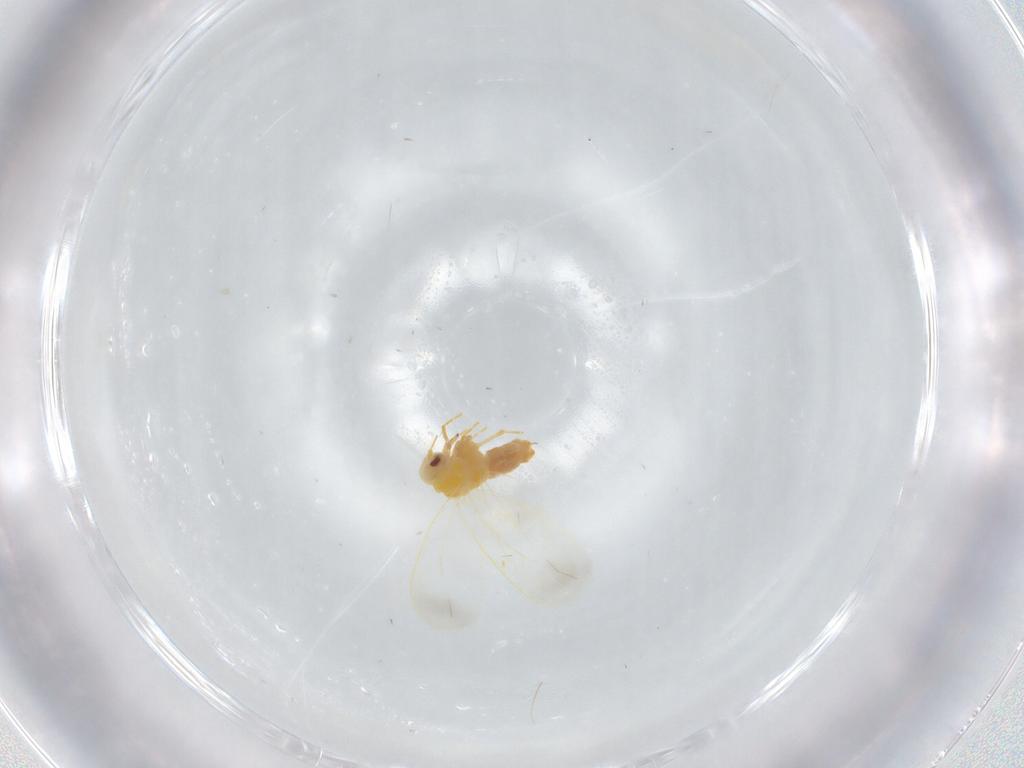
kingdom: Animalia
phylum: Arthropoda
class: Insecta
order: Hemiptera
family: Aleyrodidae
